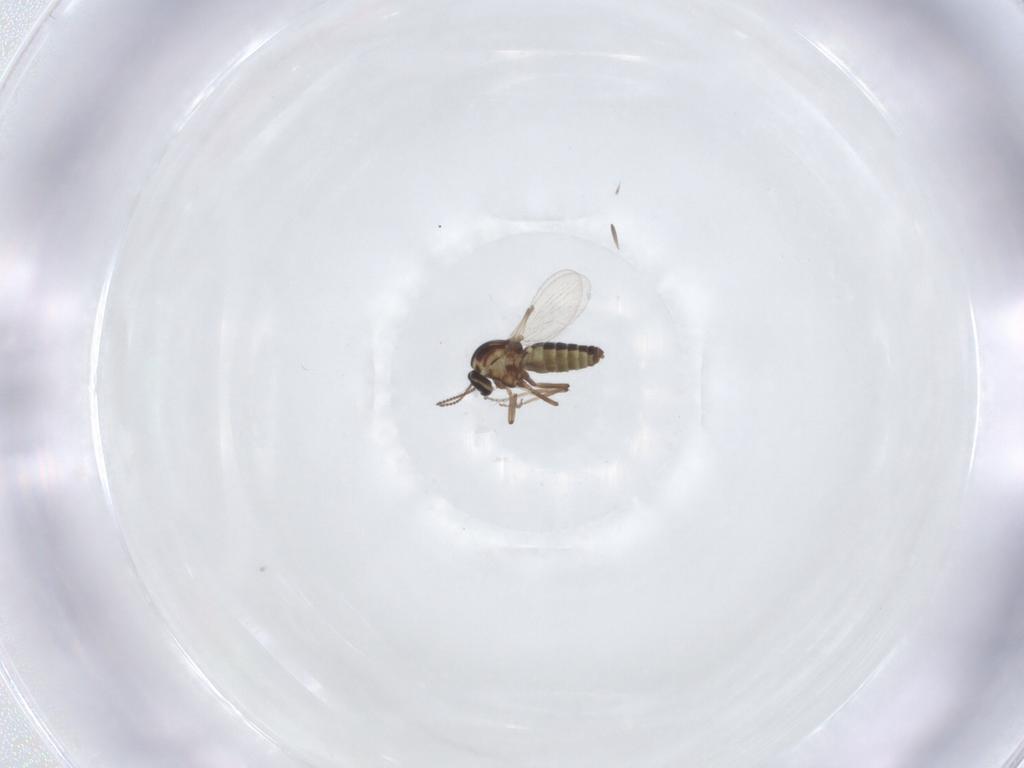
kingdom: Animalia
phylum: Arthropoda
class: Insecta
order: Diptera
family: Ceratopogonidae
